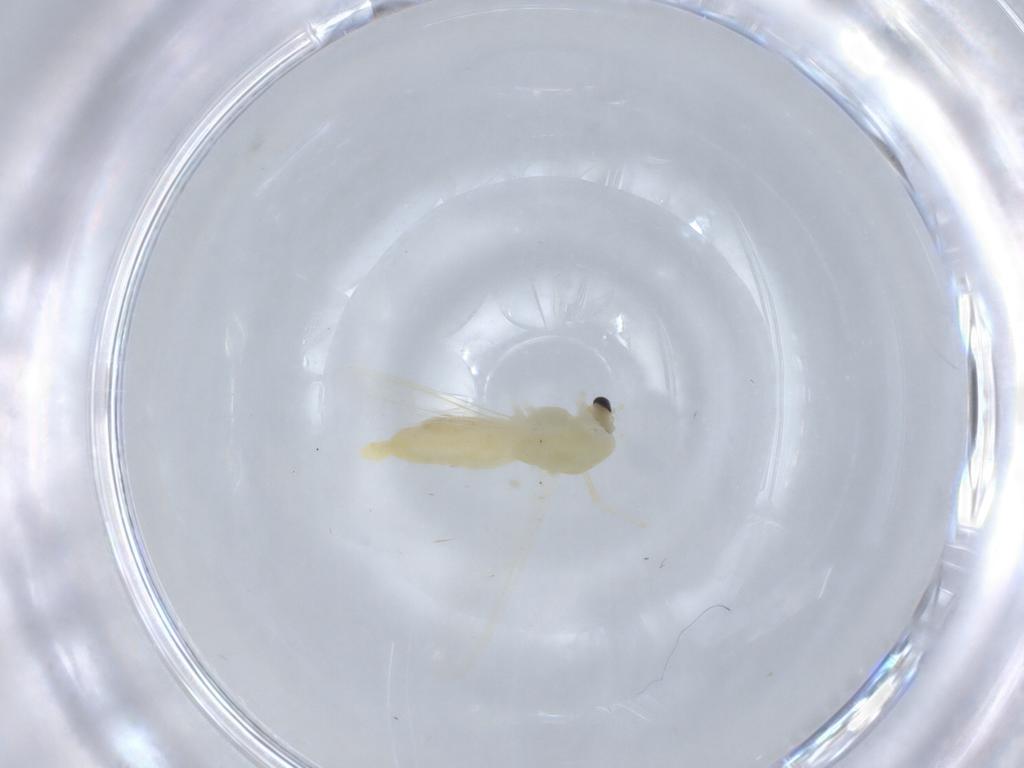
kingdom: Animalia
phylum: Arthropoda
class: Insecta
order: Diptera
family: Chironomidae
